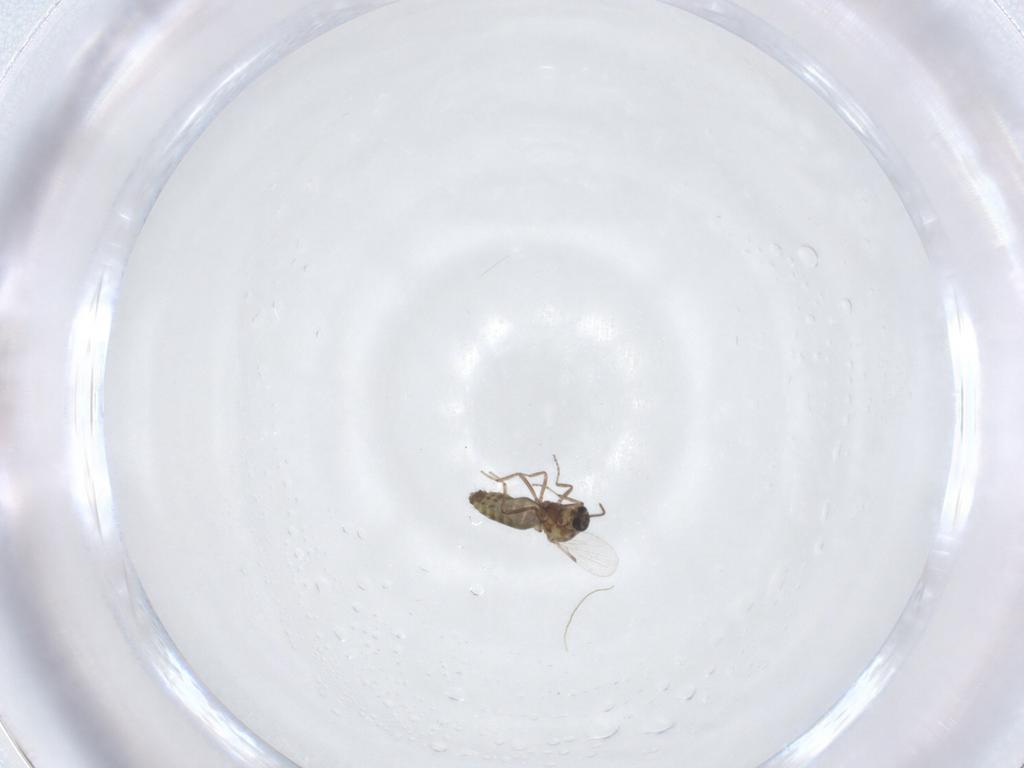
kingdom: Animalia
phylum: Arthropoda
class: Insecta
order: Diptera
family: Ceratopogonidae
